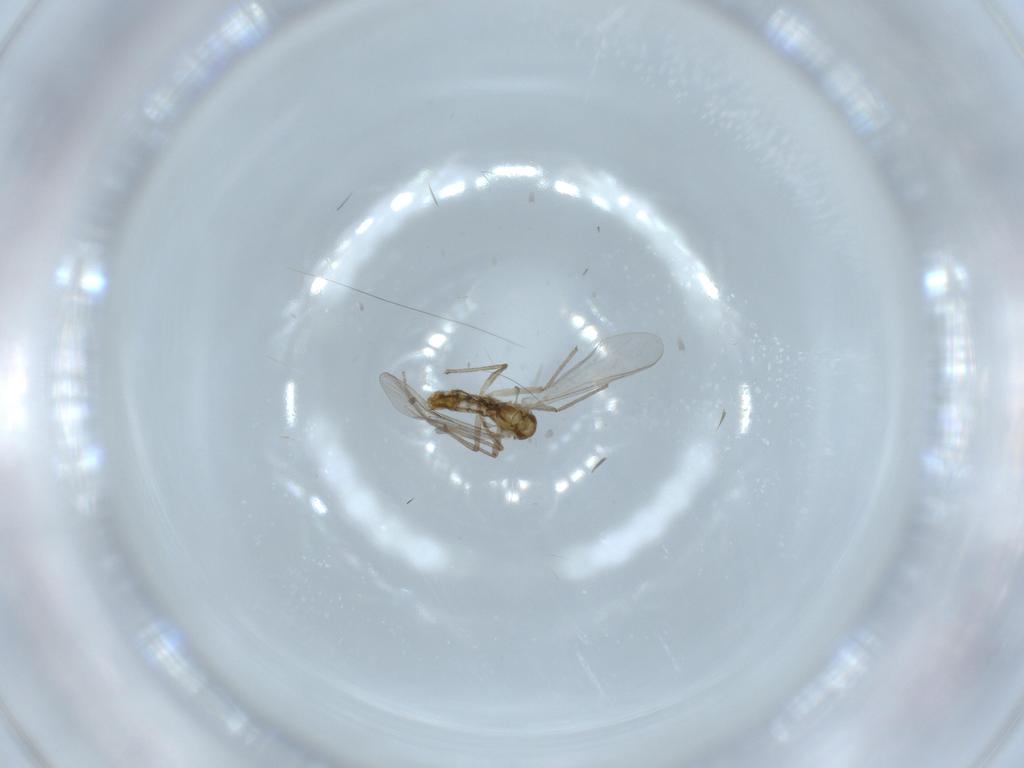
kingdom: Animalia
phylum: Arthropoda
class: Insecta
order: Diptera
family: Chironomidae
